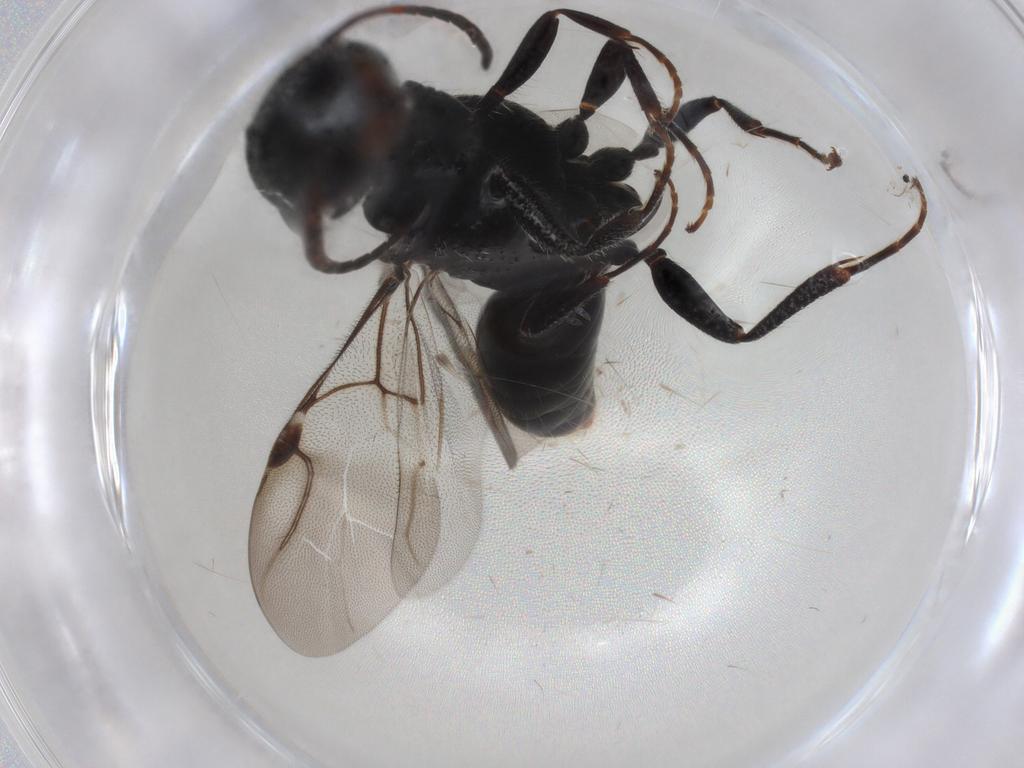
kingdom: Animalia
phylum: Arthropoda
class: Insecta
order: Hymenoptera
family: Bethylidae
